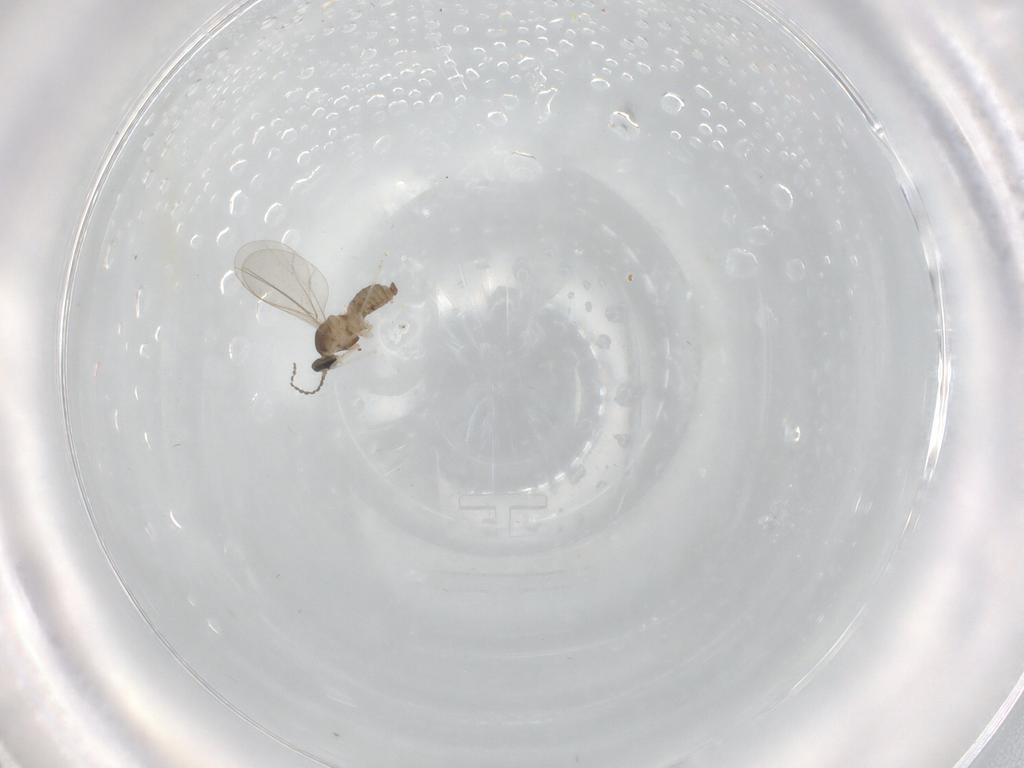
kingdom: Animalia
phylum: Arthropoda
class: Insecta
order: Diptera
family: Cecidomyiidae
